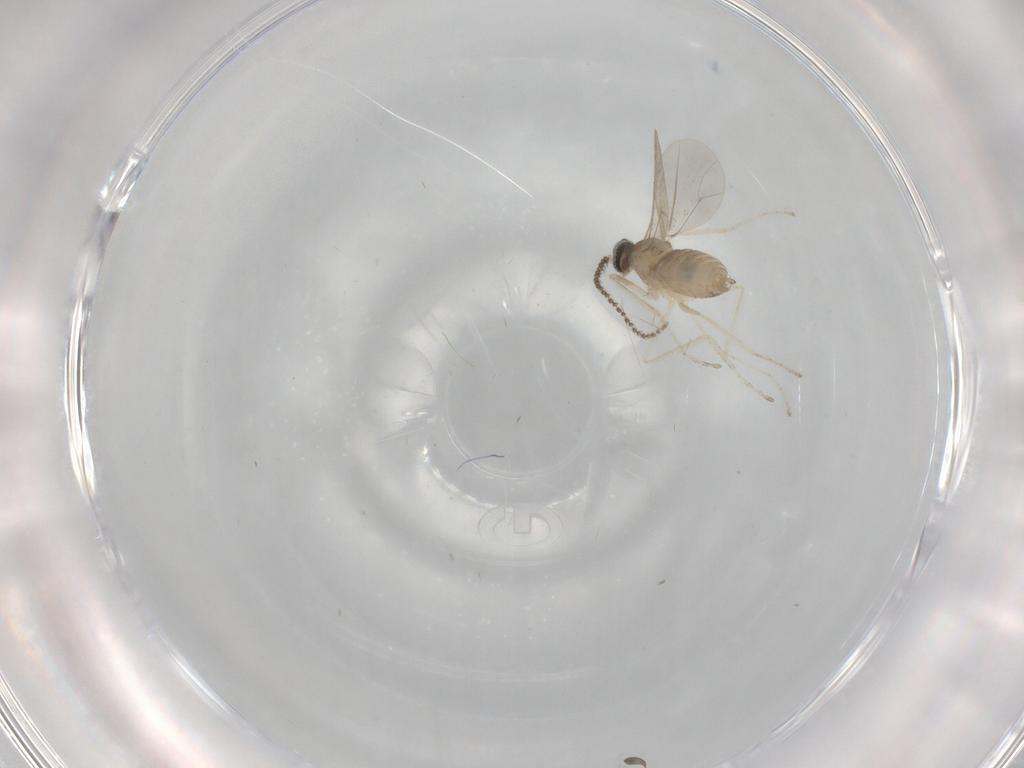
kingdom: Animalia
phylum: Arthropoda
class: Insecta
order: Diptera
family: Cecidomyiidae
